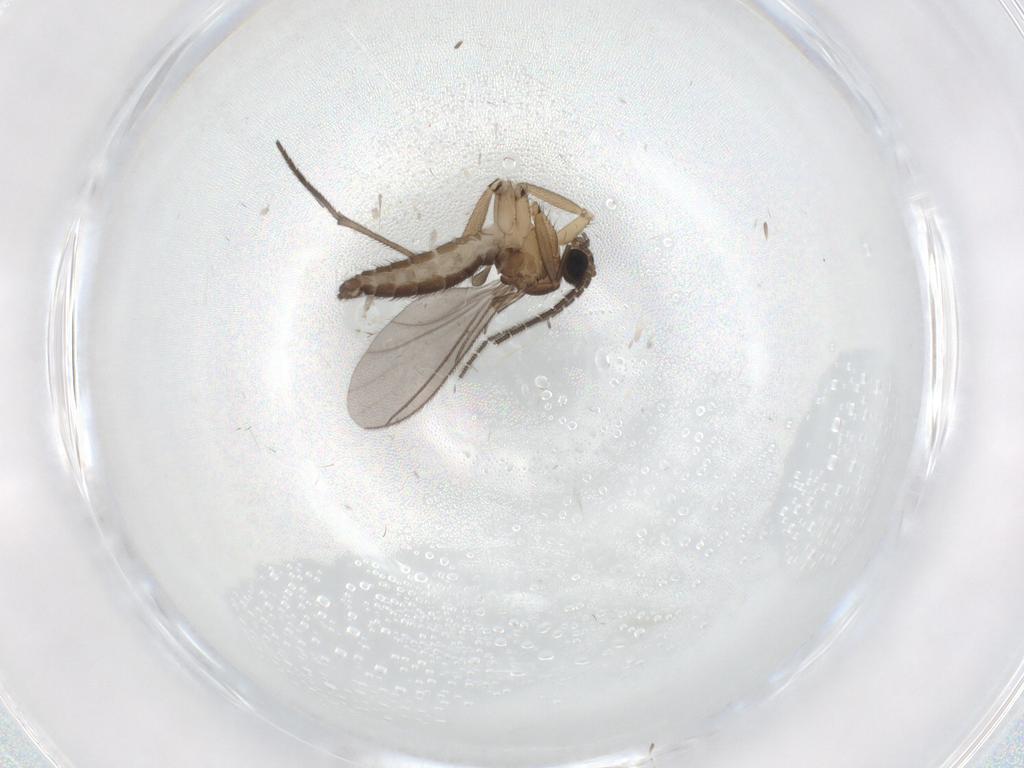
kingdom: Animalia
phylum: Arthropoda
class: Insecta
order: Diptera
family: Sciaridae
